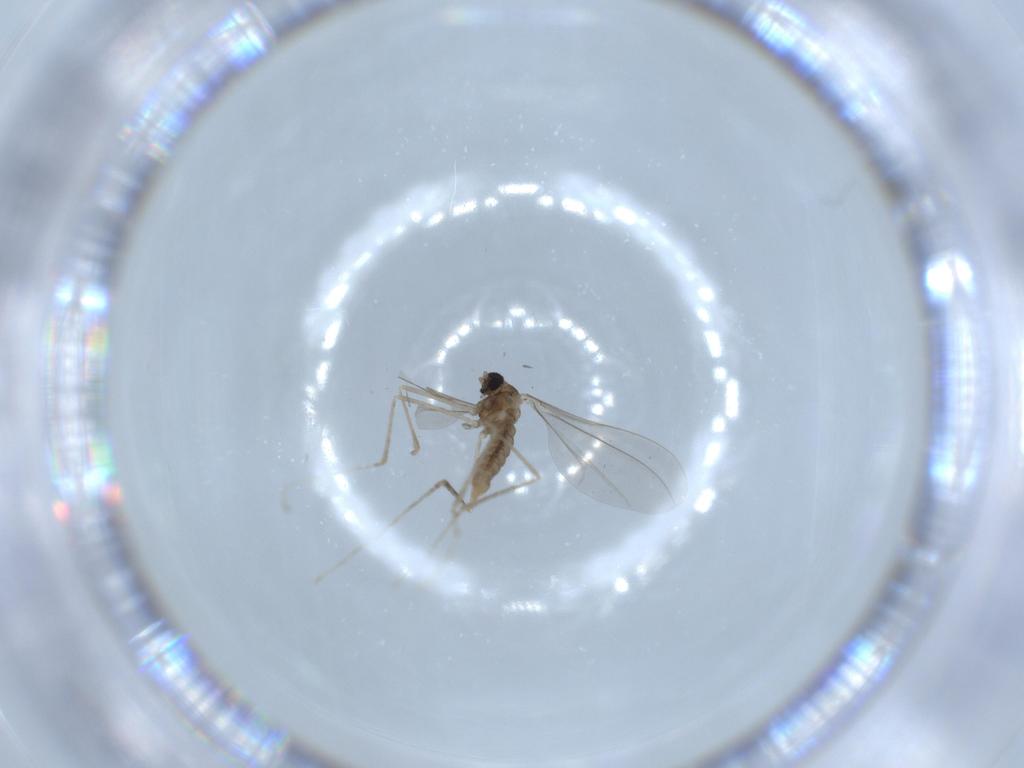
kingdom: Animalia
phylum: Arthropoda
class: Insecta
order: Diptera
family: Cecidomyiidae
